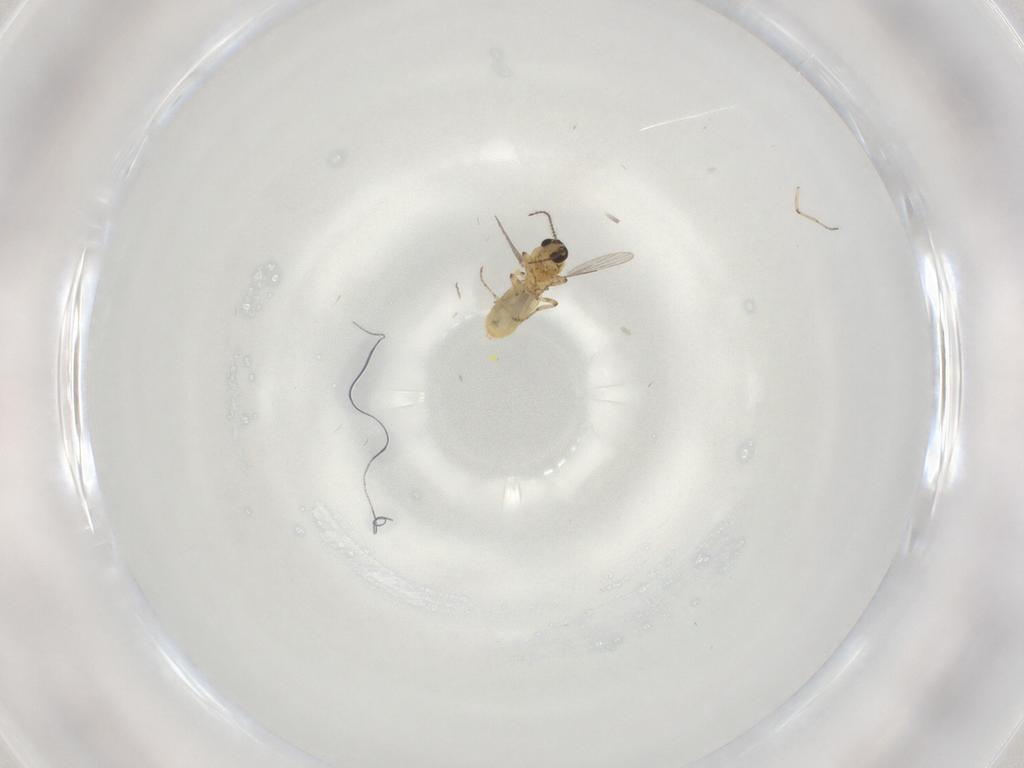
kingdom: Animalia
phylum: Arthropoda
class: Insecta
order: Diptera
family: Ceratopogonidae
